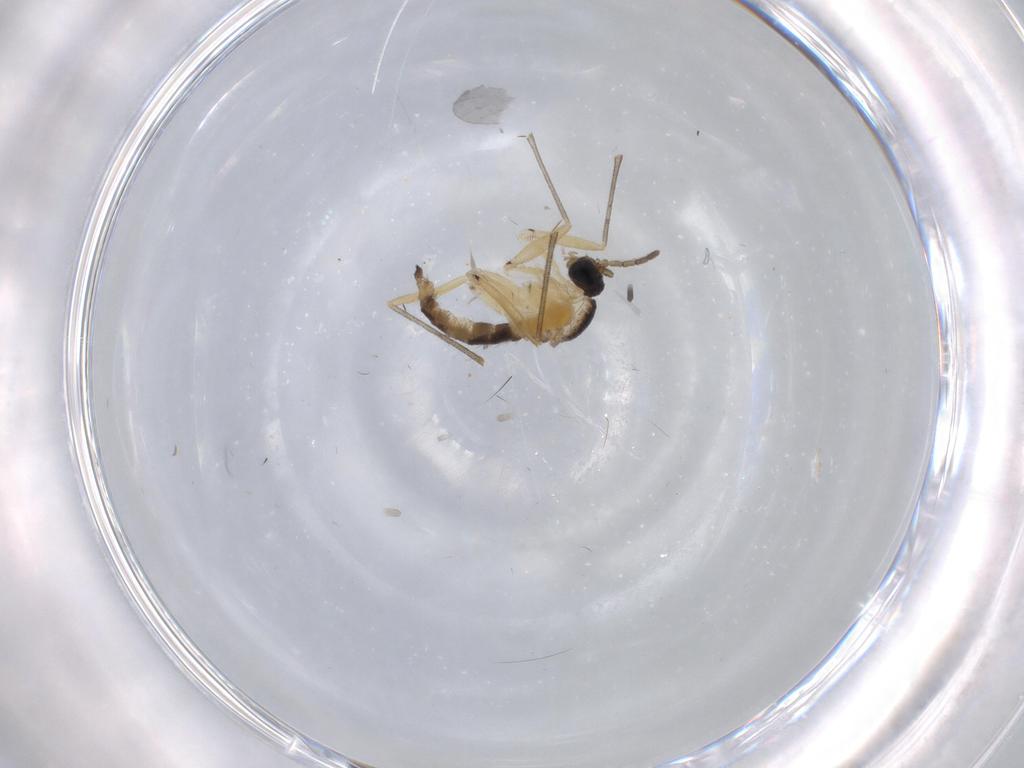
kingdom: Animalia
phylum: Arthropoda
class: Insecta
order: Diptera
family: Sciaridae
